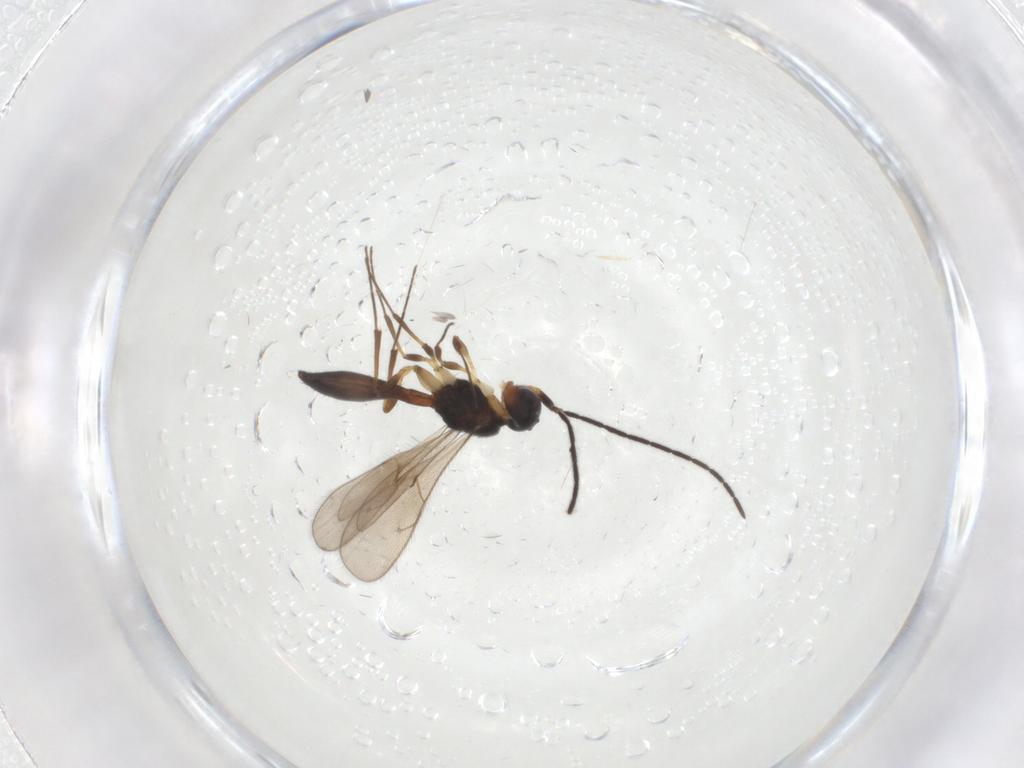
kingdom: Animalia
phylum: Arthropoda
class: Insecta
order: Hymenoptera
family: Scelionidae
